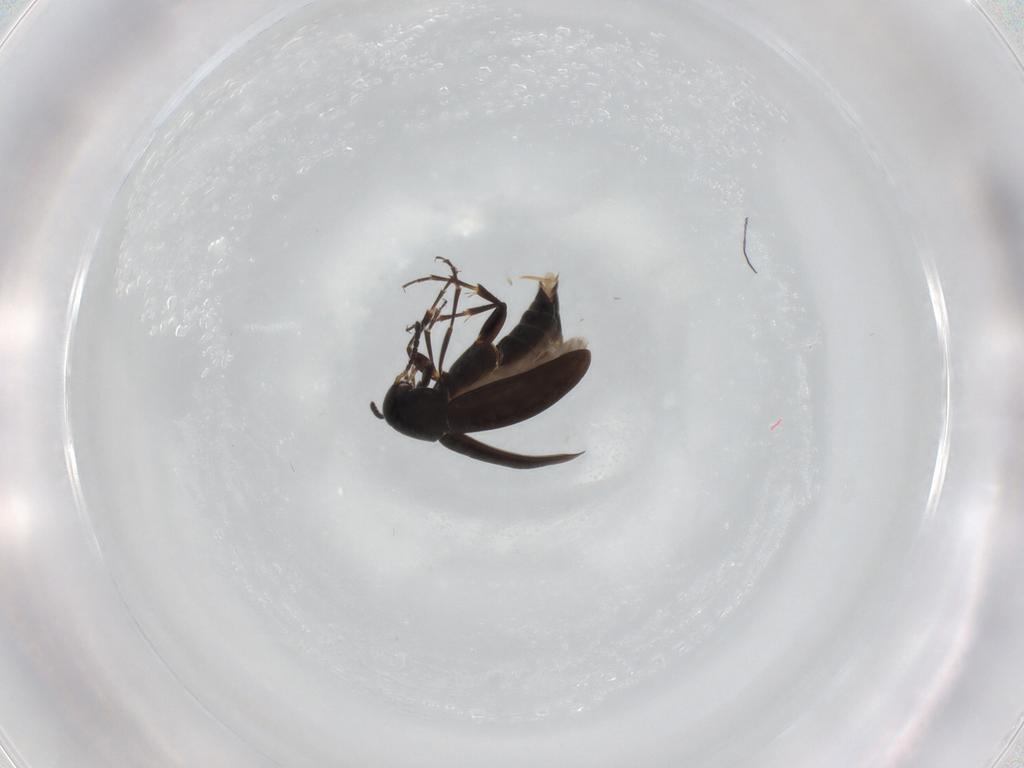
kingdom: Animalia
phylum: Arthropoda
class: Insecta
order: Coleoptera
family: Scraptiidae
